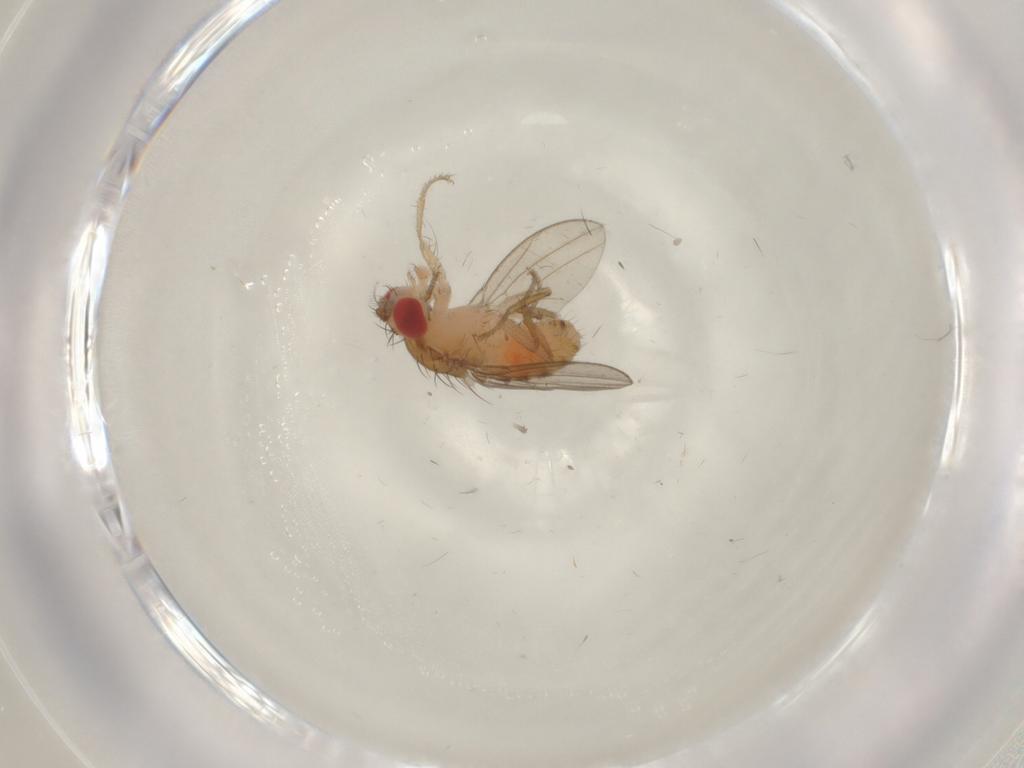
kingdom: Animalia
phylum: Arthropoda
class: Insecta
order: Diptera
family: Drosophilidae
